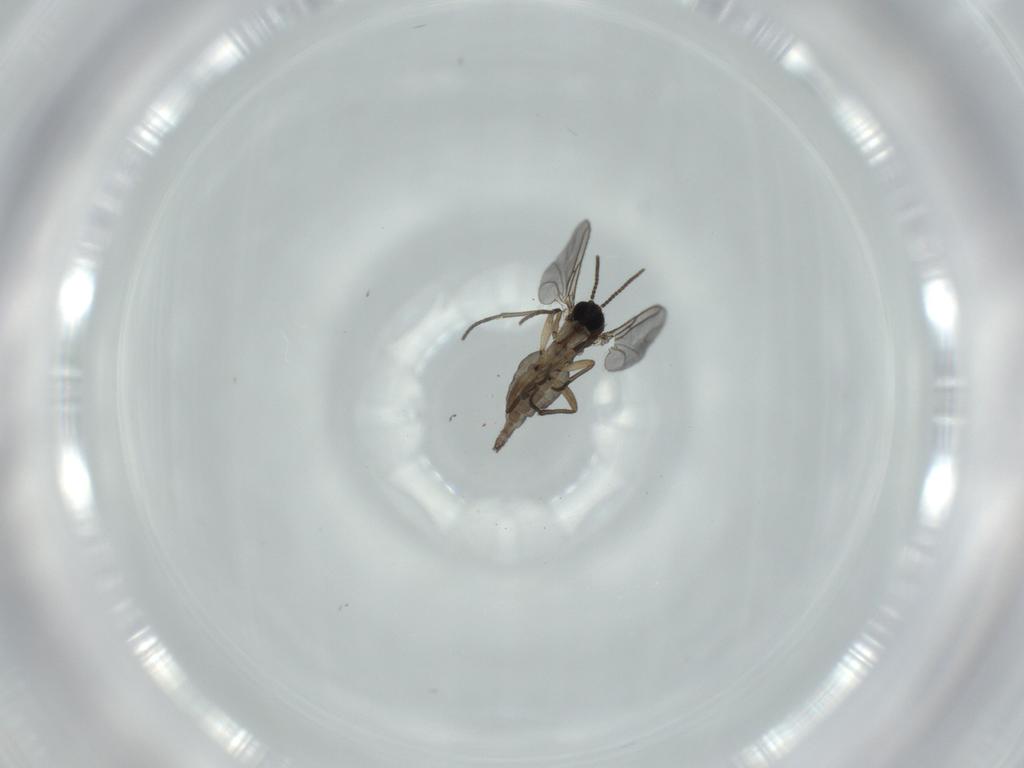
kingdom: Animalia
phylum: Arthropoda
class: Insecta
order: Diptera
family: Sciaridae
